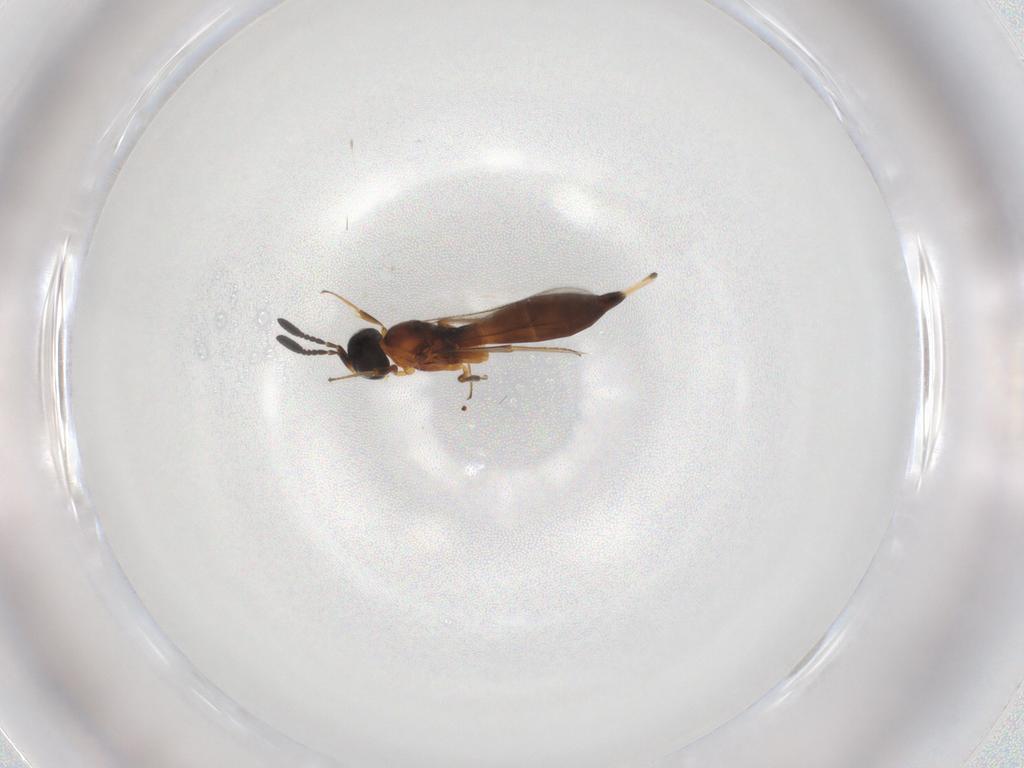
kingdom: Animalia
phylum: Arthropoda
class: Insecta
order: Hymenoptera
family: Scelionidae
